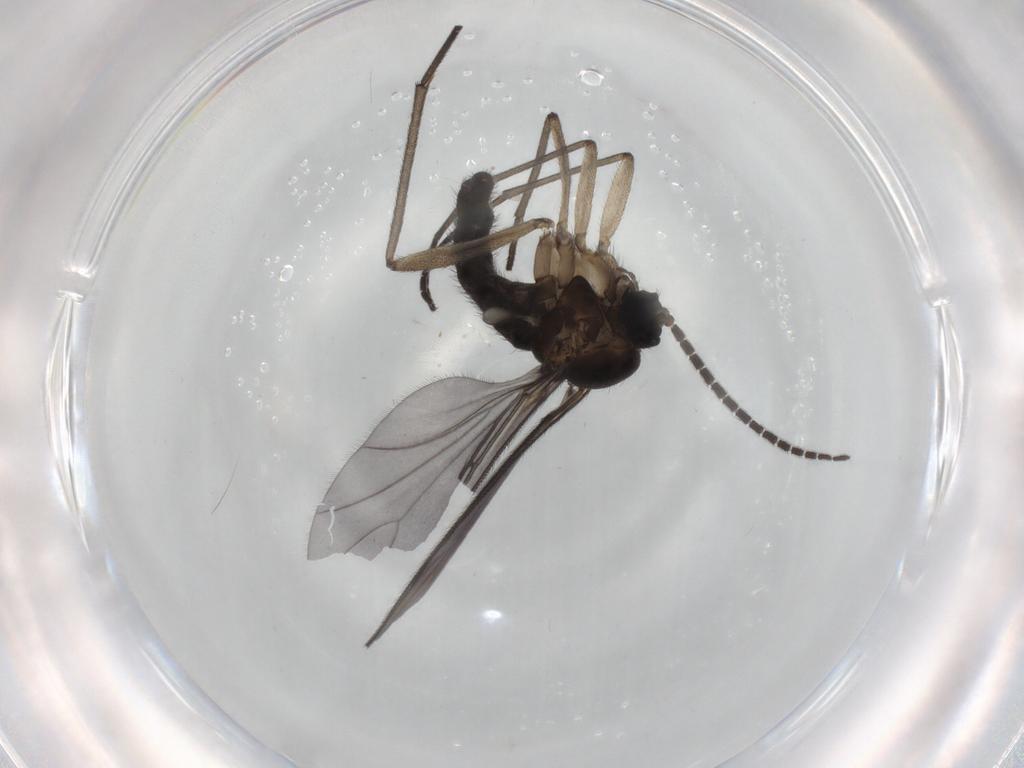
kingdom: Animalia
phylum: Arthropoda
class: Insecta
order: Diptera
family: Sciaridae
